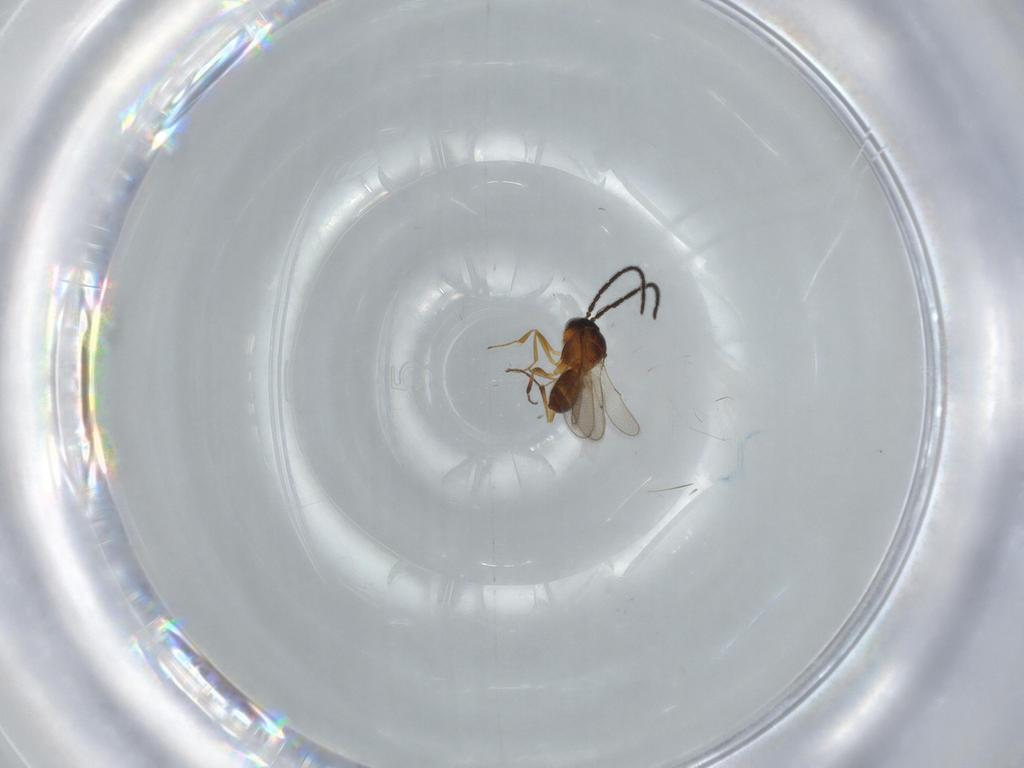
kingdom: Animalia
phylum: Arthropoda
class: Insecta
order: Hymenoptera
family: Scelionidae
